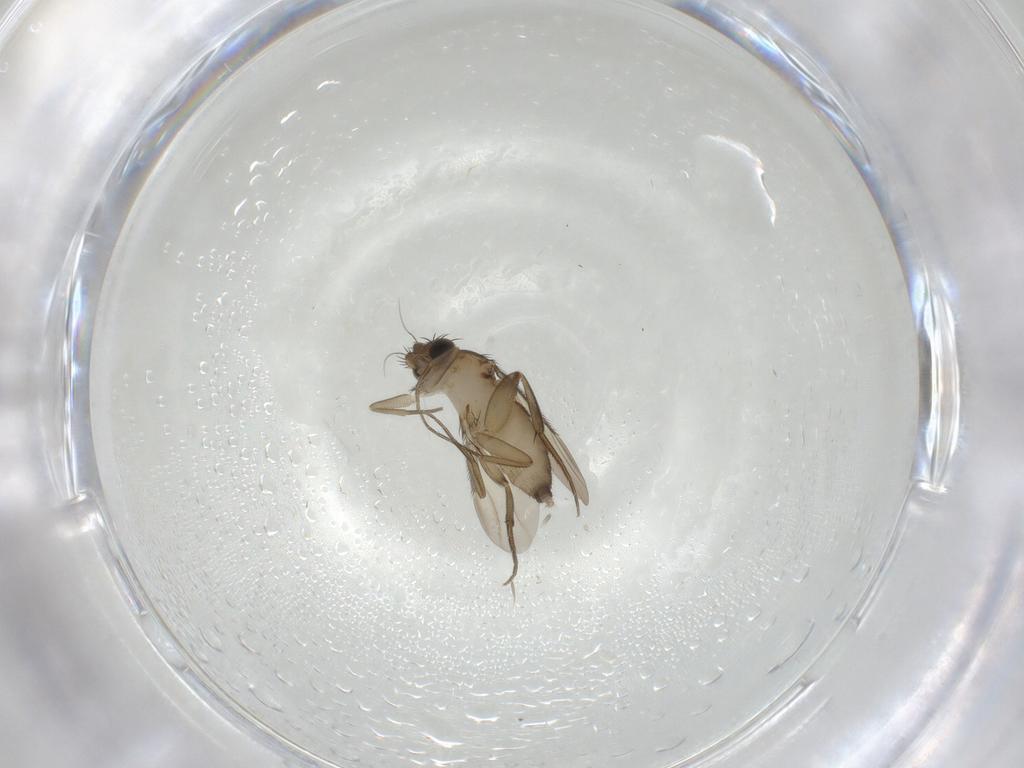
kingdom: Animalia
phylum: Arthropoda
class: Insecta
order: Diptera
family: Phoridae
